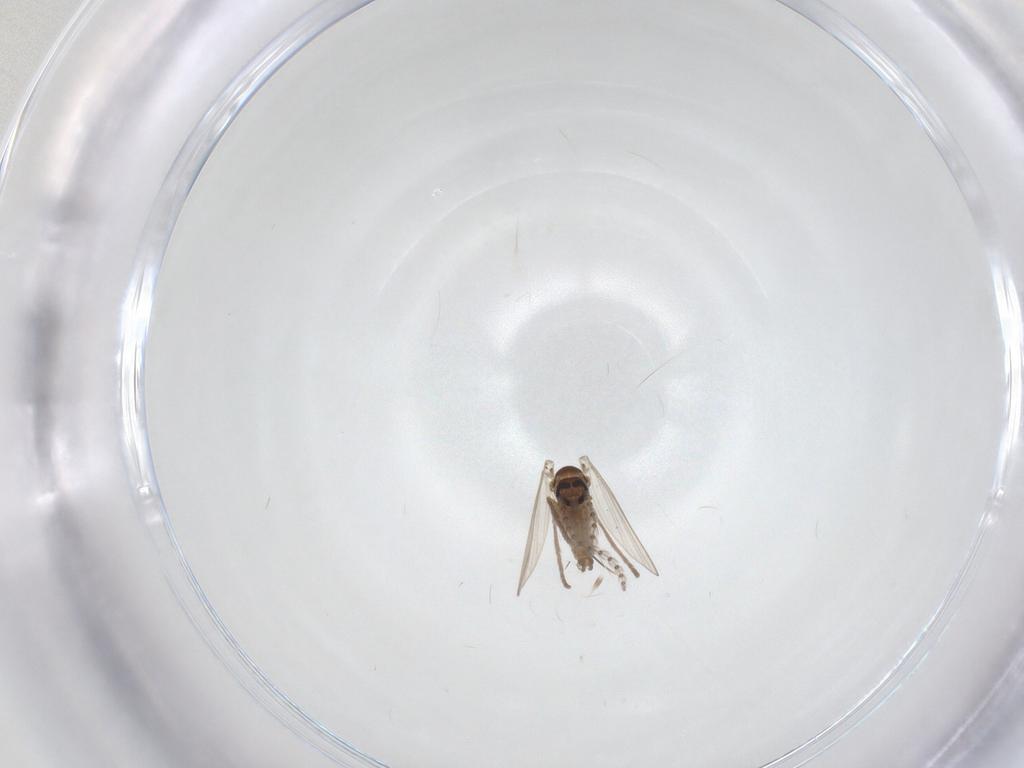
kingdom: Animalia
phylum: Arthropoda
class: Insecta
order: Diptera
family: Psychodidae
